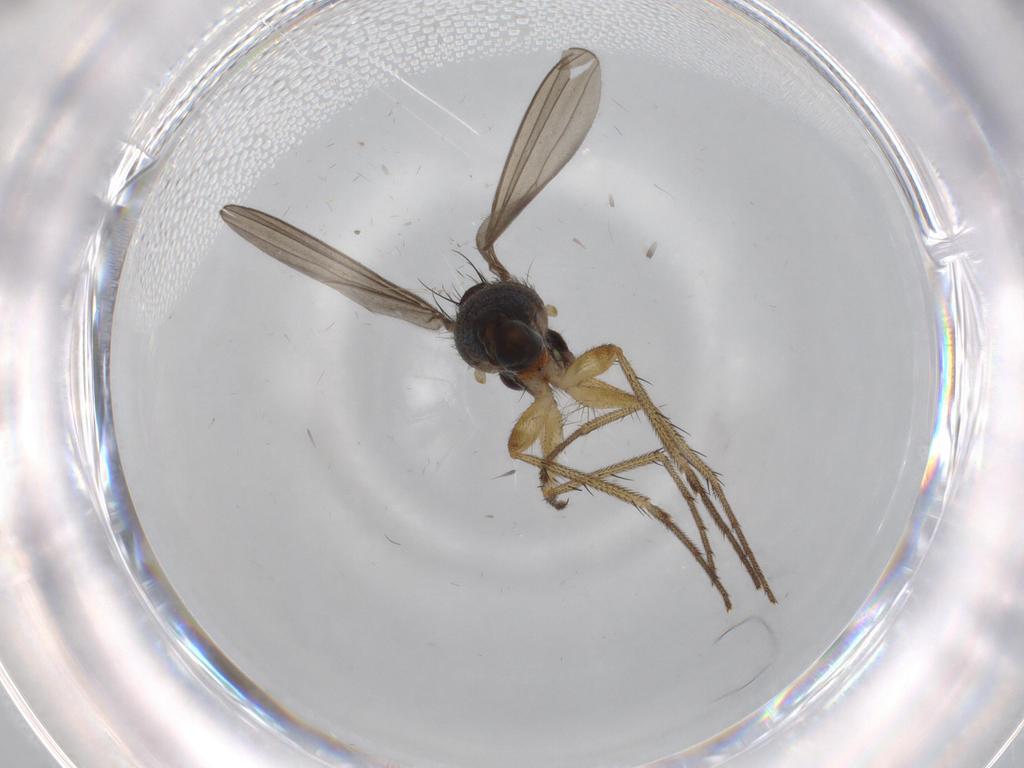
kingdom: Animalia
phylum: Arthropoda
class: Insecta
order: Diptera
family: Dolichopodidae
